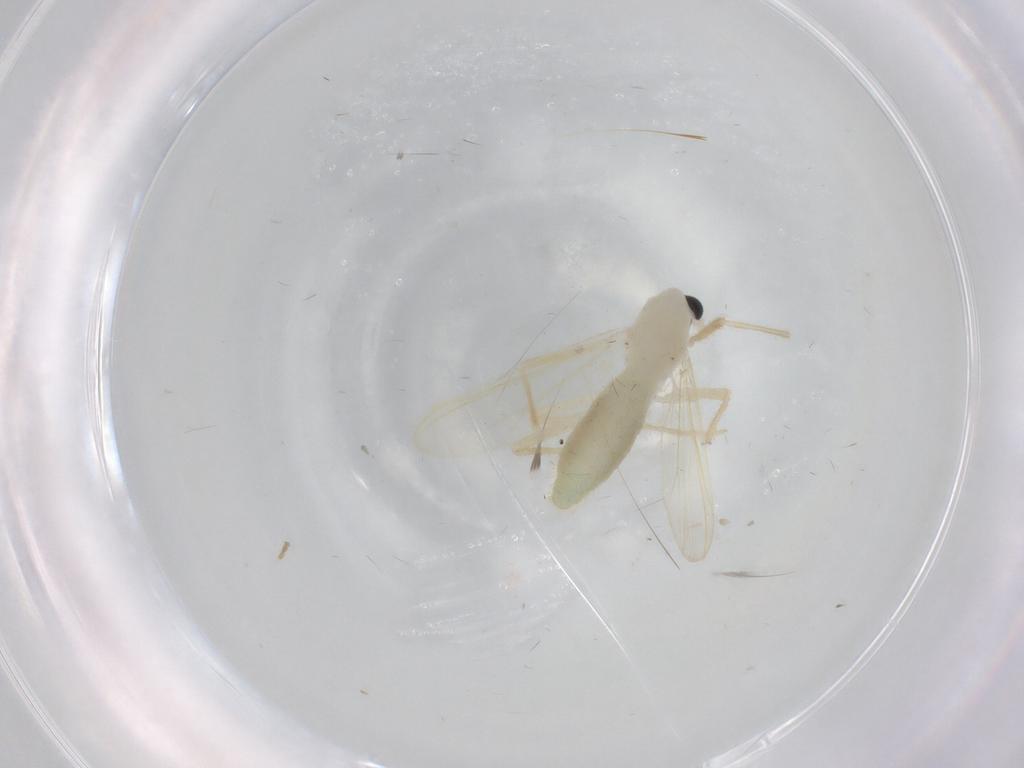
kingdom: Animalia
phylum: Arthropoda
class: Insecta
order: Diptera
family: Chironomidae
